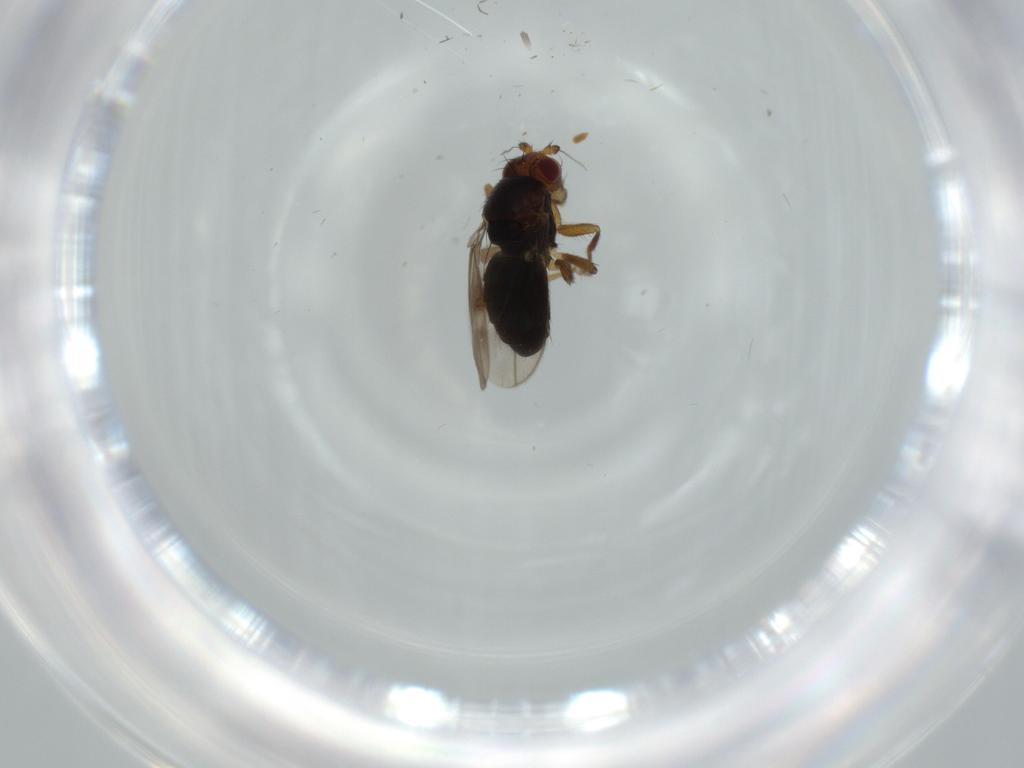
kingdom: Animalia
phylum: Arthropoda
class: Insecta
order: Diptera
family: Sphaeroceridae
